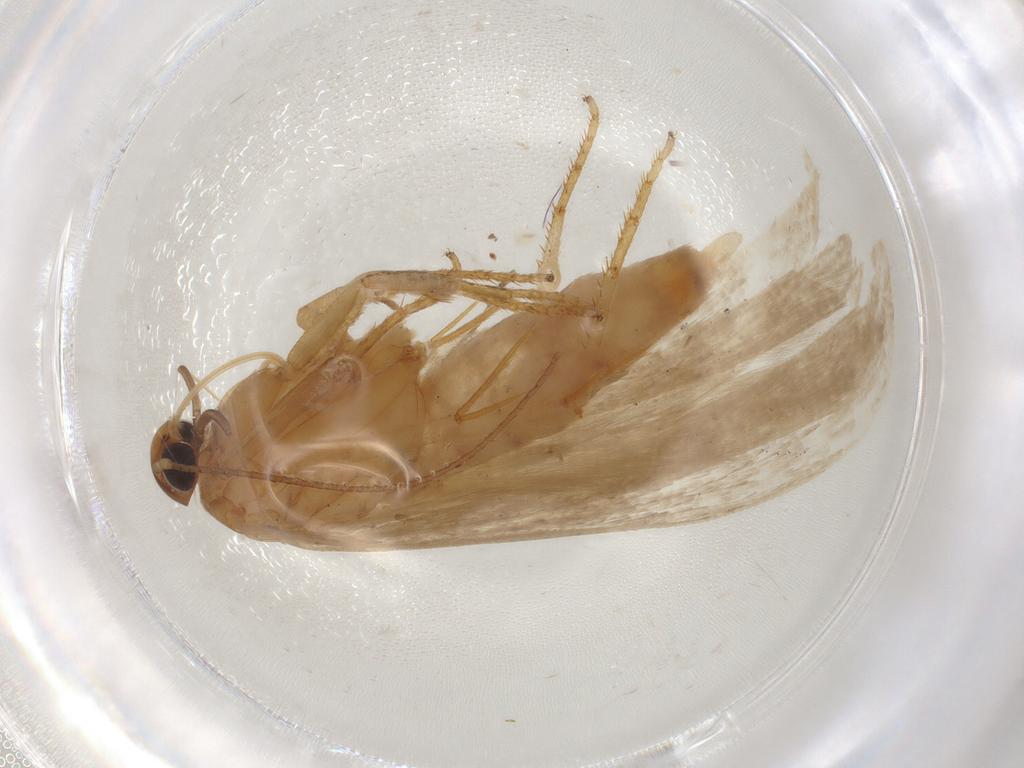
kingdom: Animalia
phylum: Arthropoda
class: Insecta
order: Lepidoptera
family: Gelechiidae
